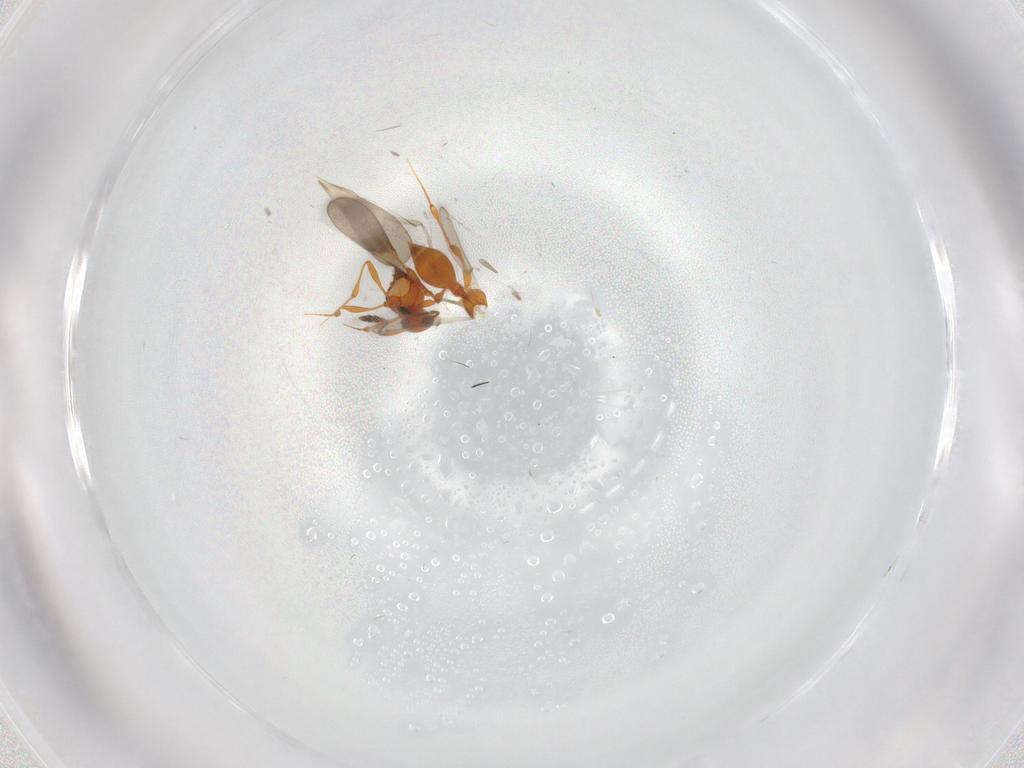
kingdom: Animalia
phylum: Arthropoda
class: Insecta
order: Hymenoptera
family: Platygastridae
